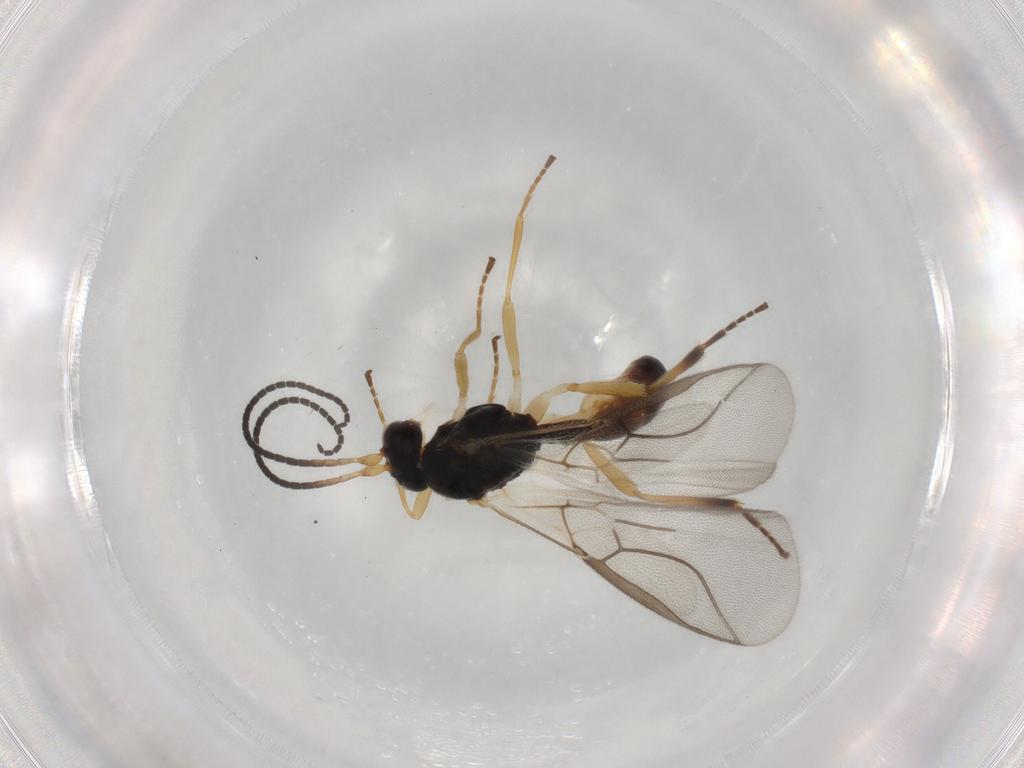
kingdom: Animalia
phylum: Arthropoda
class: Insecta
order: Hymenoptera
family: Braconidae
